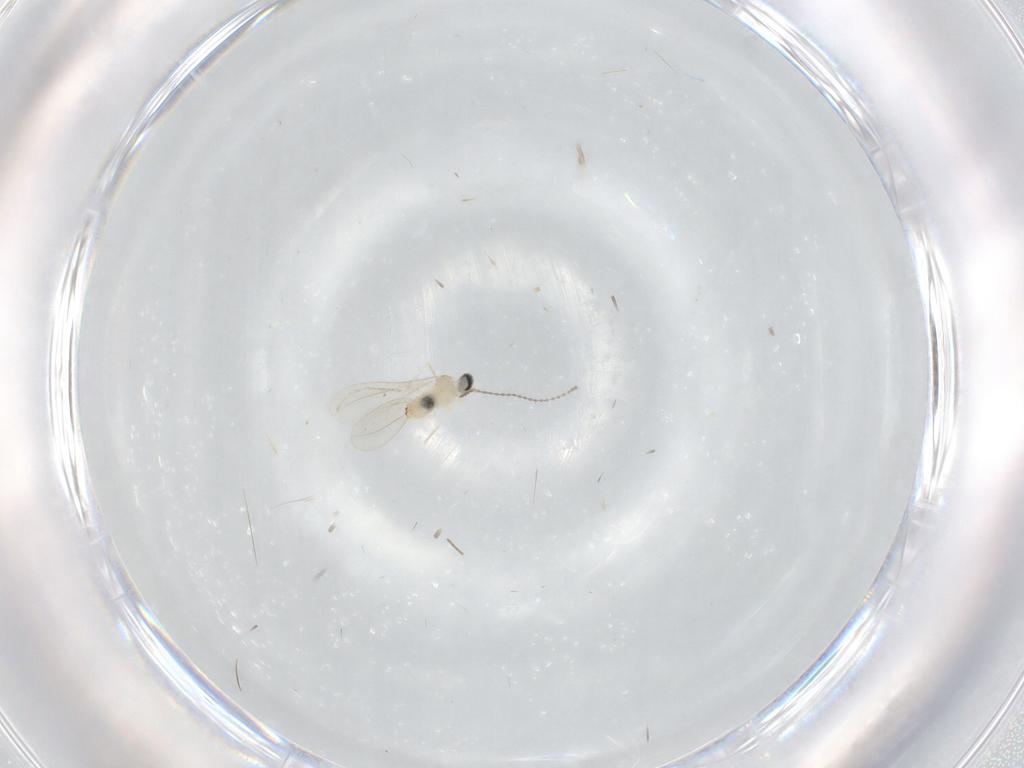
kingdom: Animalia
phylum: Arthropoda
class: Insecta
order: Diptera
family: Cecidomyiidae
